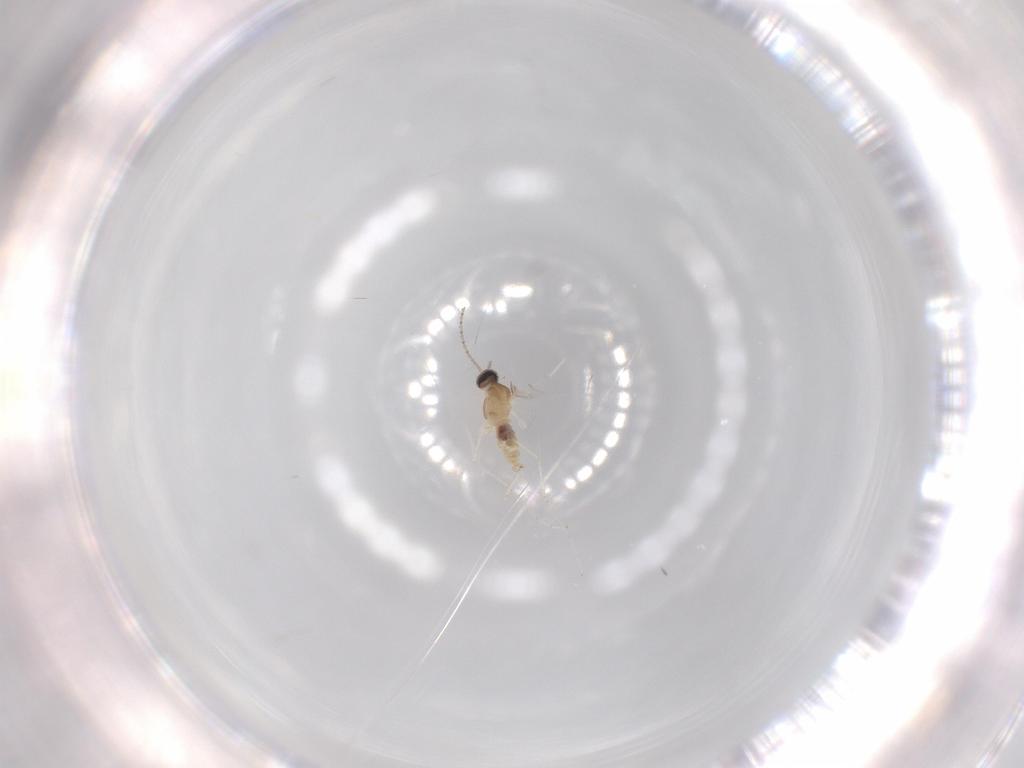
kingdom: Animalia
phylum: Arthropoda
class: Insecta
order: Diptera
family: Cecidomyiidae
